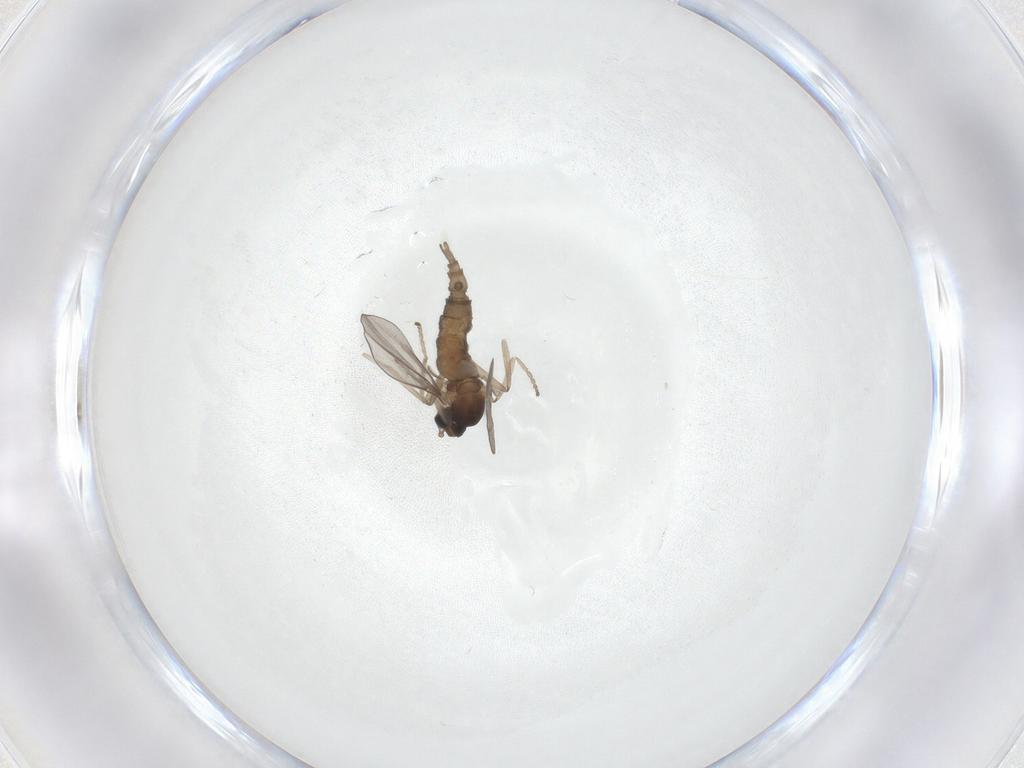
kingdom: Animalia
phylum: Arthropoda
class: Insecta
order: Diptera
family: Cecidomyiidae
